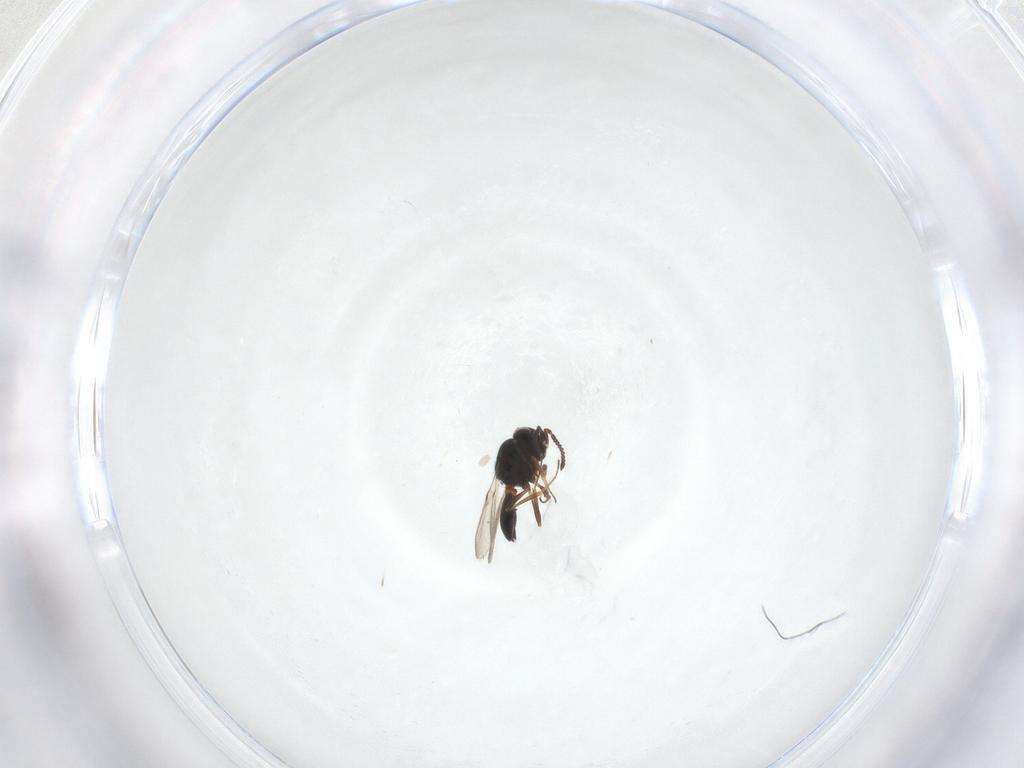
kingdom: Animalia
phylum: Arthropoda
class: Arachnida
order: Araneae
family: Pholcidae
